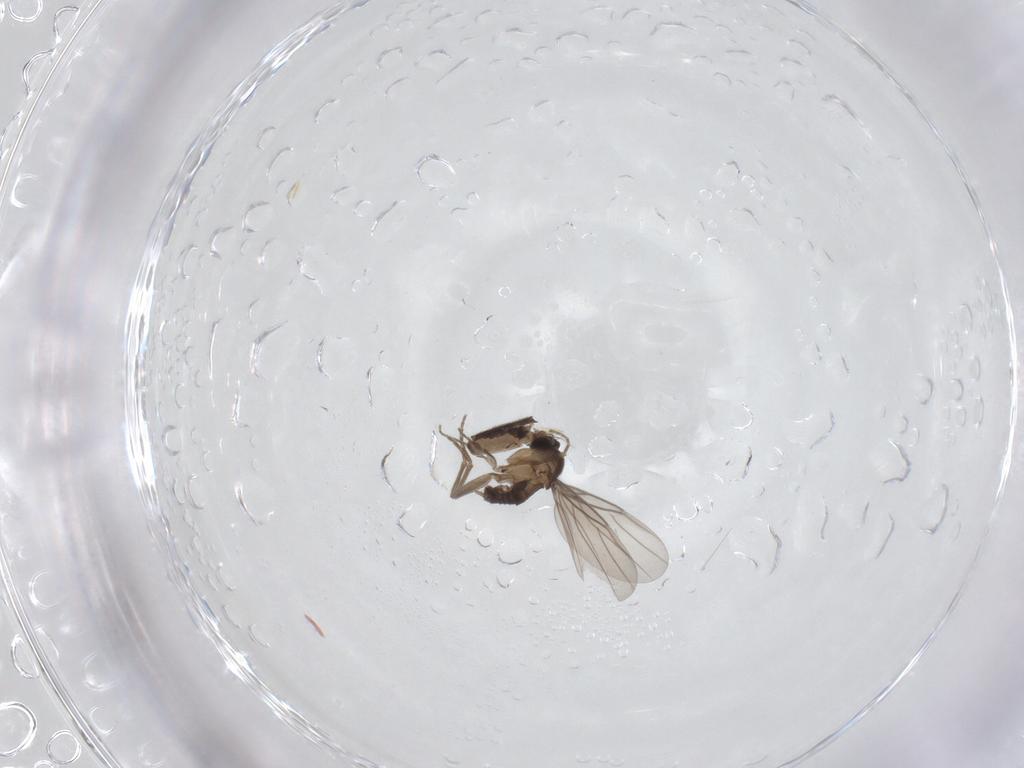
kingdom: Animalia
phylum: Arthropoda
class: Insecta
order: Diptera
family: Phoridae
